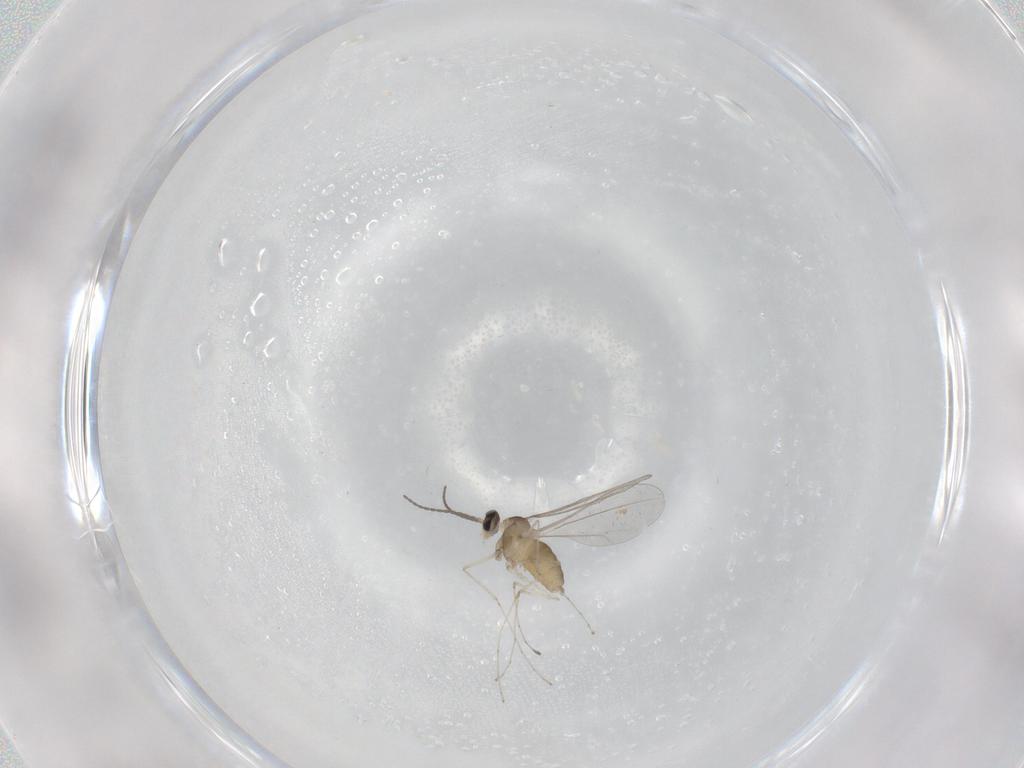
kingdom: Animalia
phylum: Arthropoda
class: Insecta
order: Diptera
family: Cecidomyiidae
